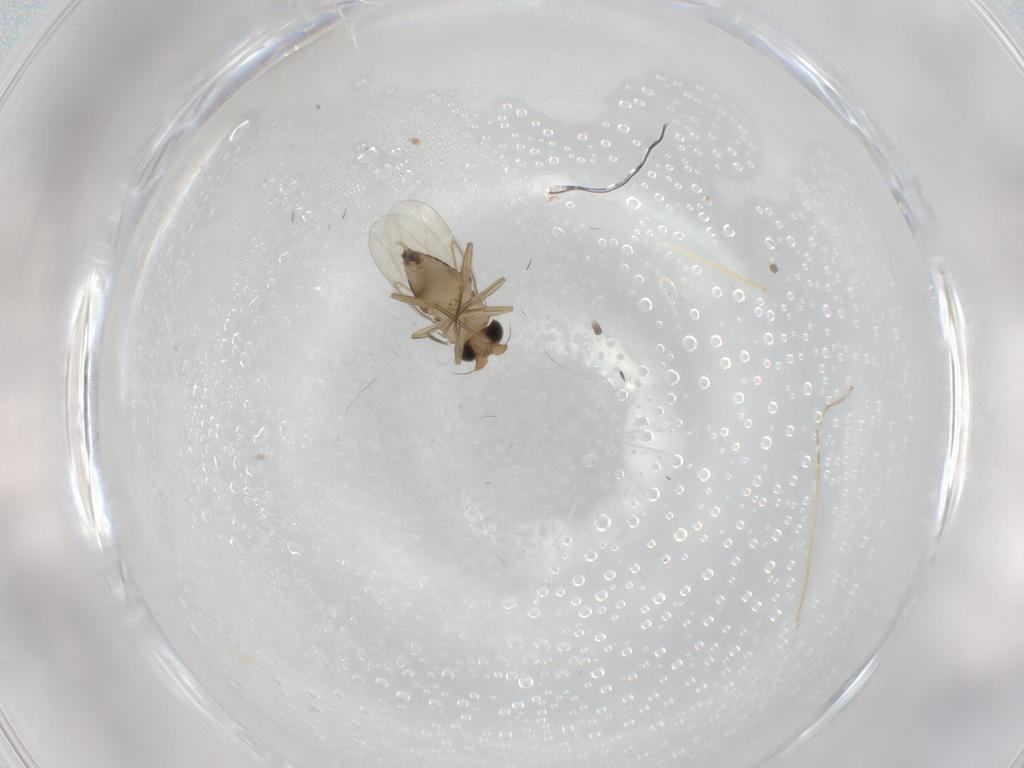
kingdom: Animalia
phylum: Arthropoda
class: Insecta
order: Diptera
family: Phoridae
